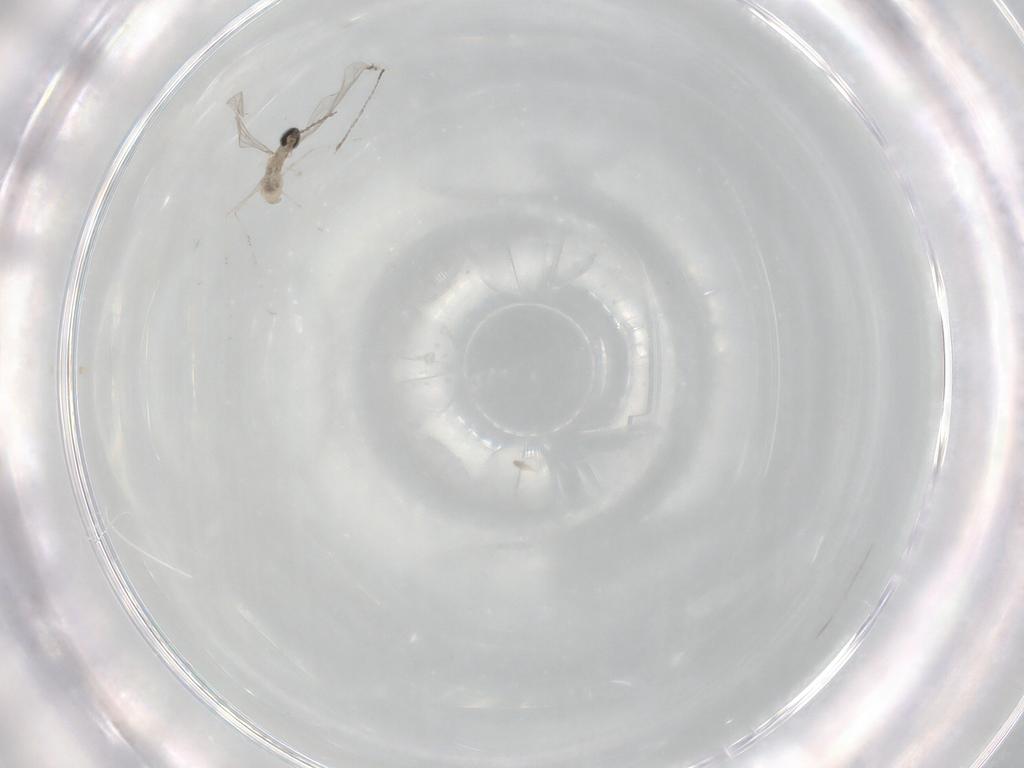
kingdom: Animalia
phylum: Arthropoda
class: Insecta
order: Diptera
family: Cecidomyiidae
